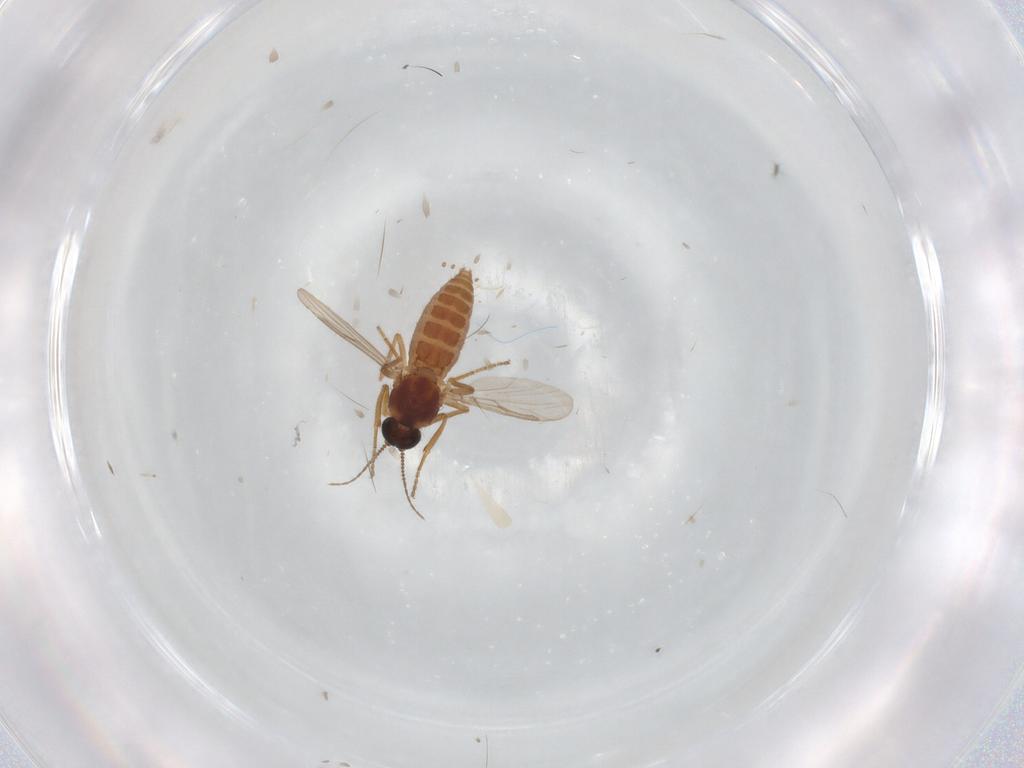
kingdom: Animalia
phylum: Arthropoda
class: Insecta
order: Diptera
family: Psychodidae
